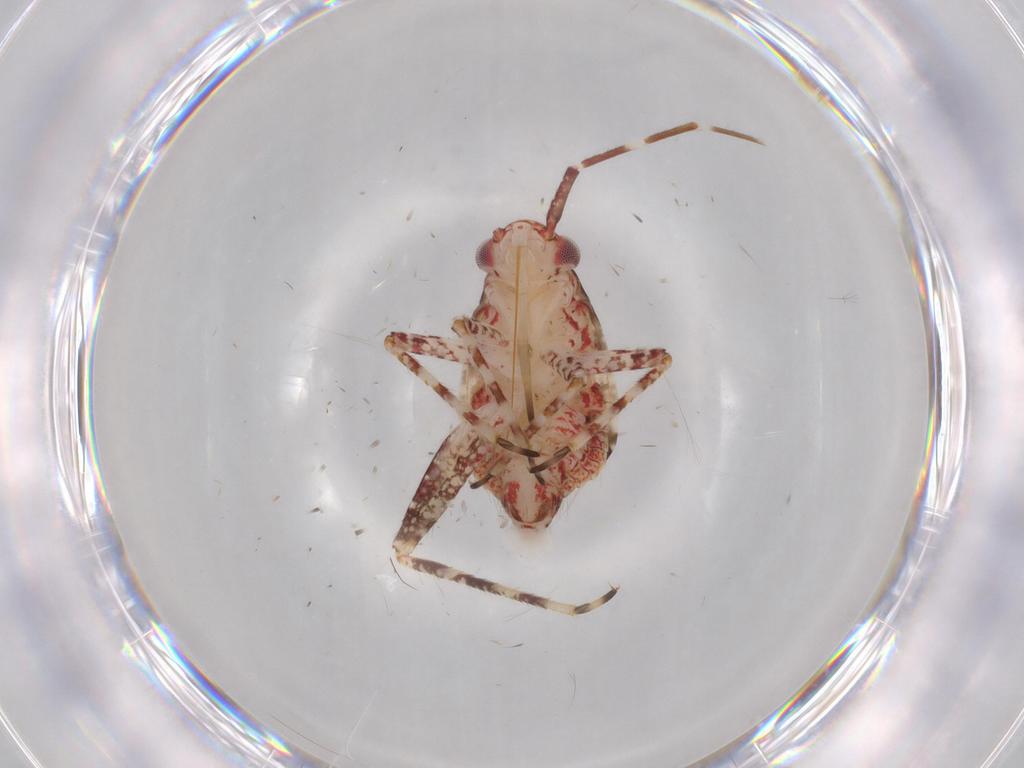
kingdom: Animalia
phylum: Arthropoda
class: Insecta
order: Hemiptera
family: Miridae
